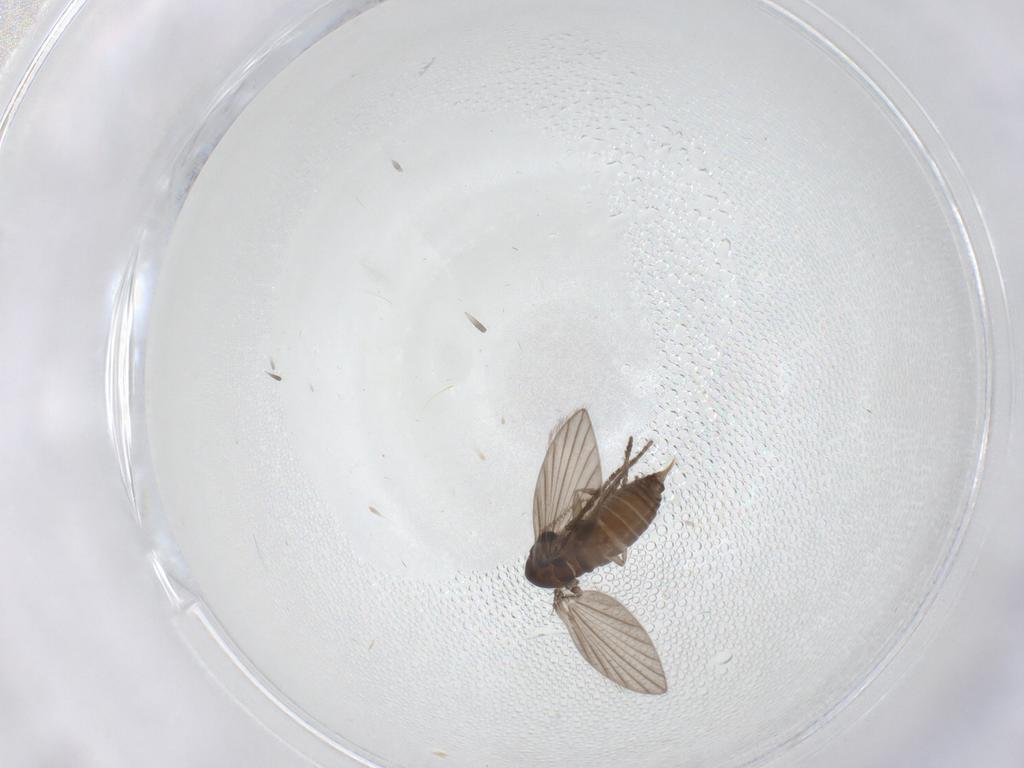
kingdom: Animalia
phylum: Arthropoda
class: Insecta
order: Diptera
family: Psychodidae
